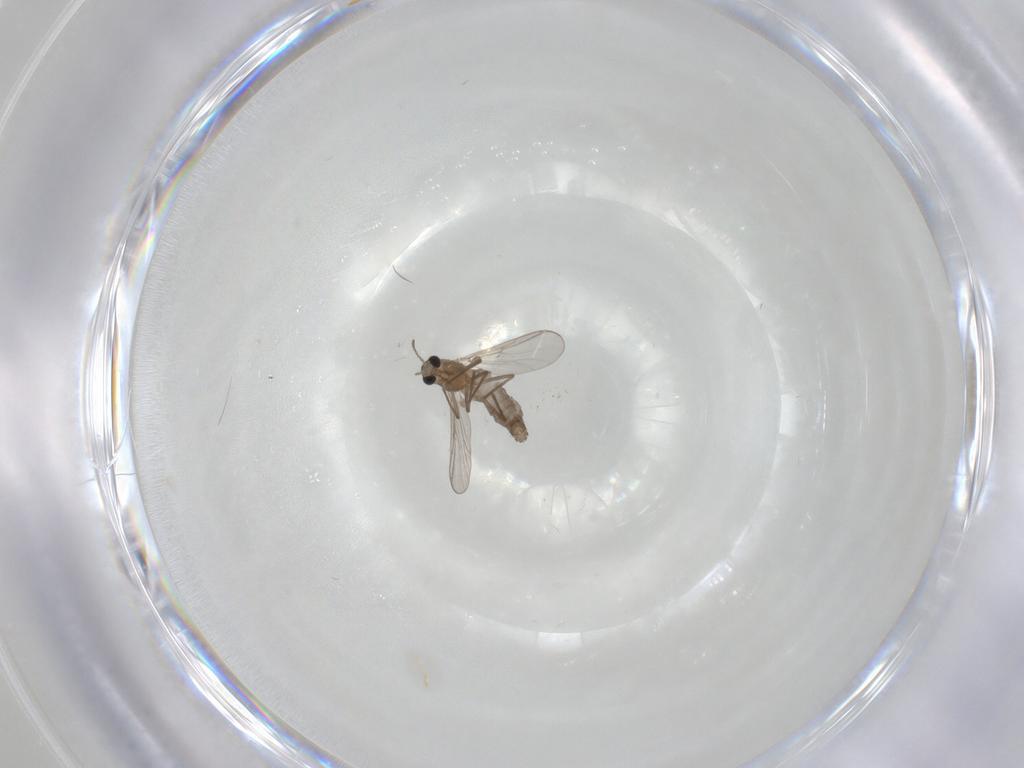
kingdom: Animalia
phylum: Arthropoda
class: Insecta
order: Diptera
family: Chironomidae
